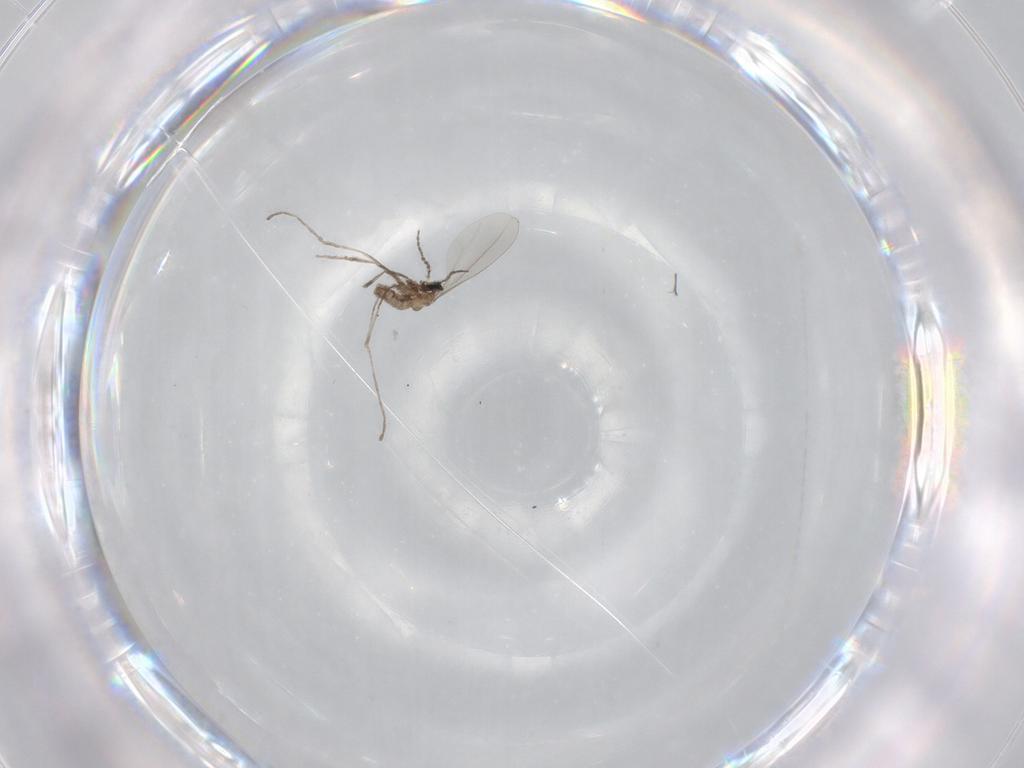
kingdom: Animalia
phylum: Arthropoda
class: Insecta
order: Diptera
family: Cecidomyiidae
